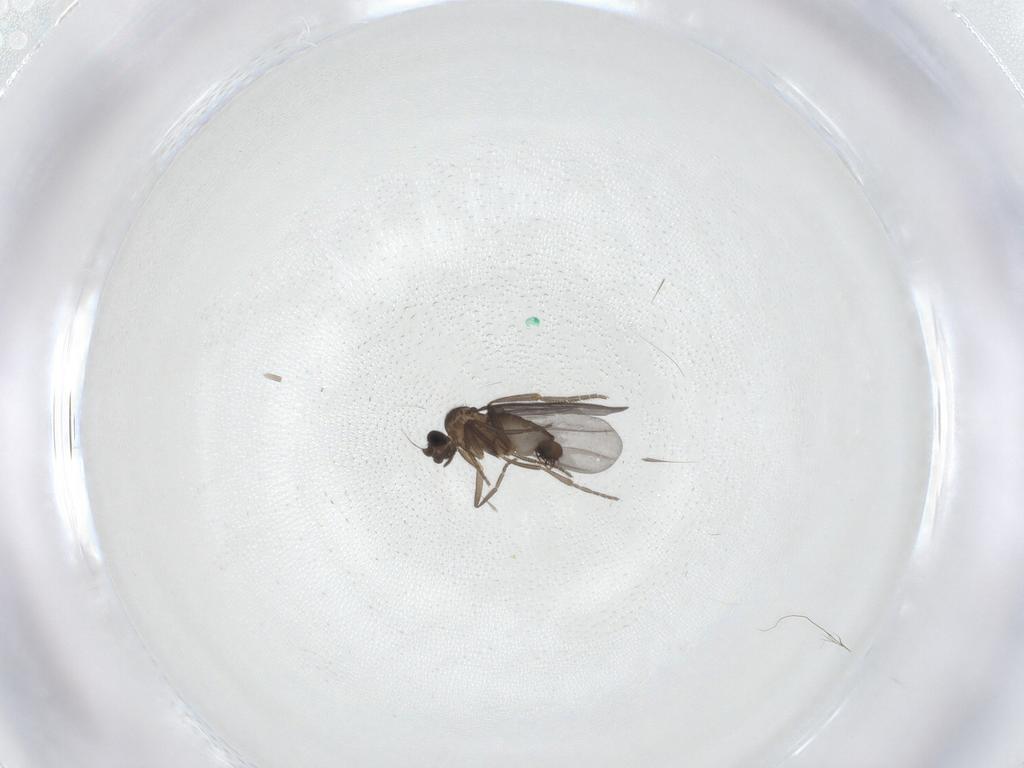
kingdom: Animalia
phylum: Arthropoda
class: Insecta
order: Diptera
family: Phoridae
